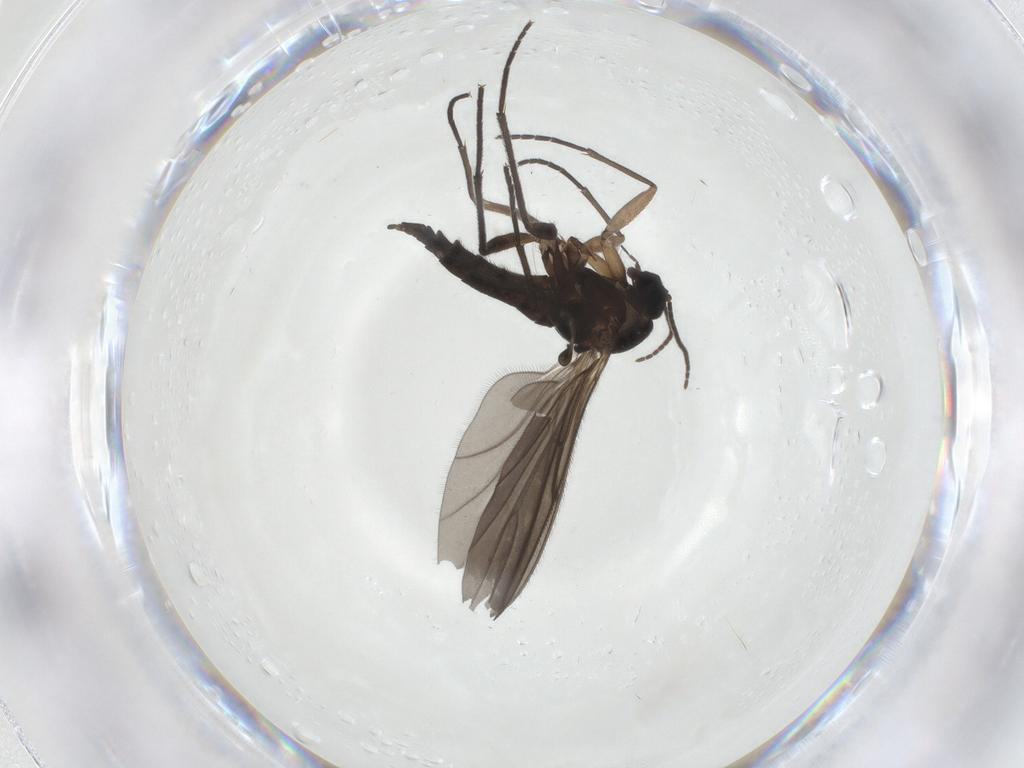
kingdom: Animalia
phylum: Arthropoda
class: Insecta
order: Diptera
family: Sciaridae
